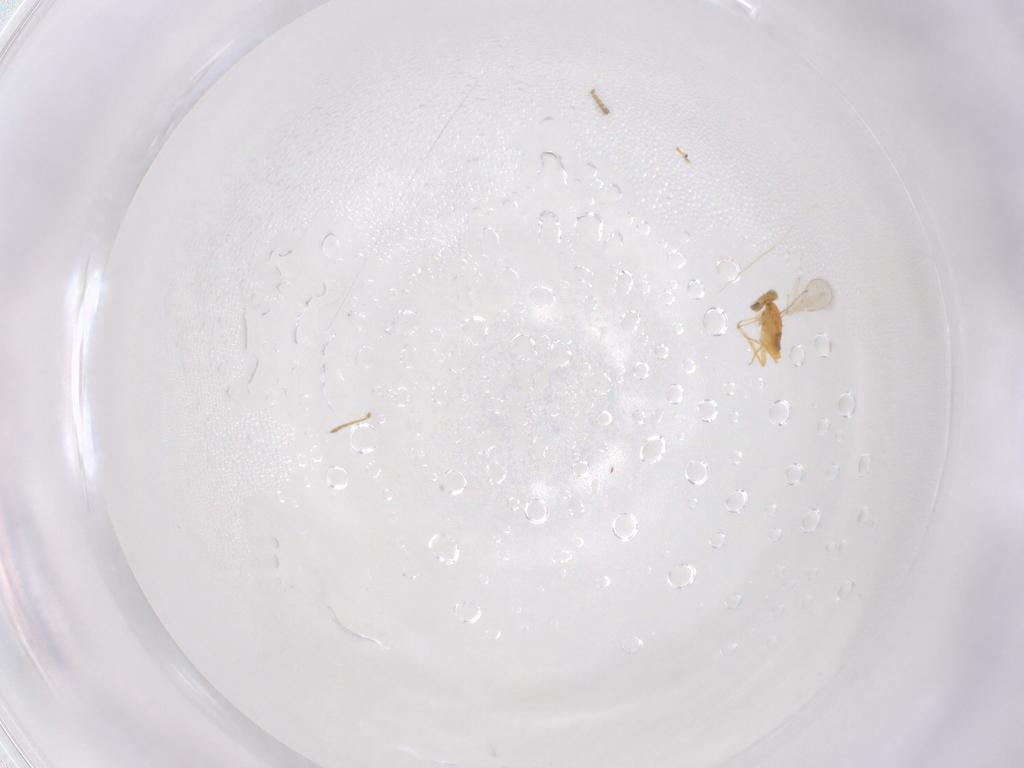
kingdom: Animalia
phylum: Arthropoda
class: Insecta
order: Hymenoptera
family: Aphelinidae
